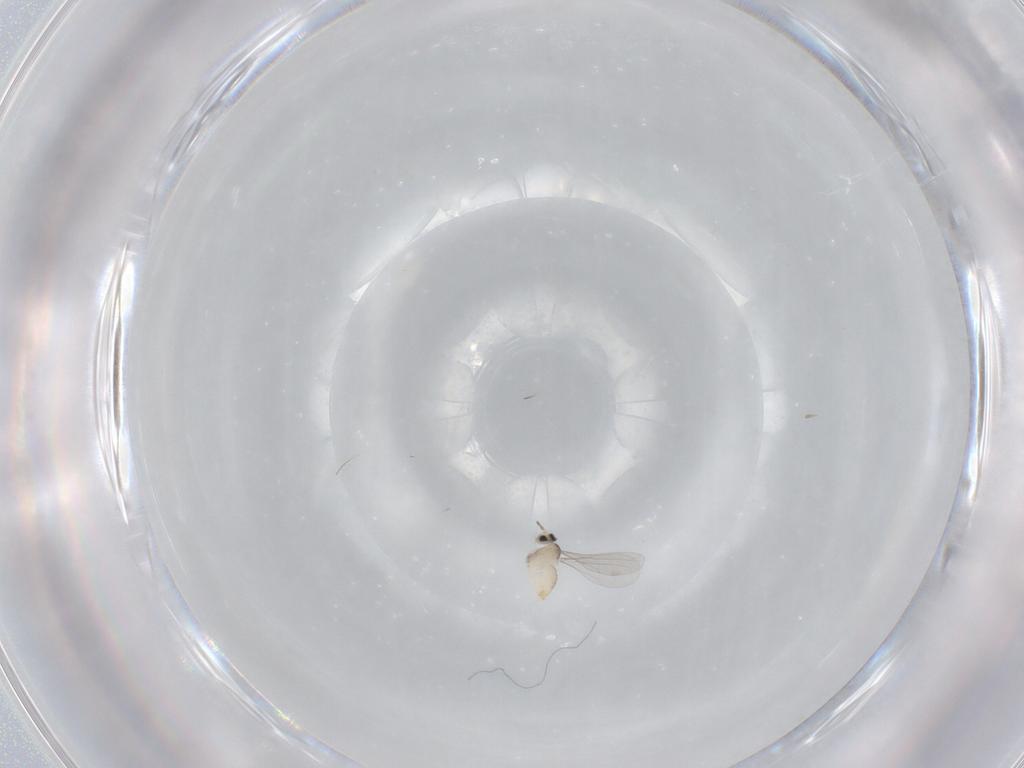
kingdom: Animalia
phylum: Arthropoda
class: Insecta
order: Diptera
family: Cecidomyiidae
